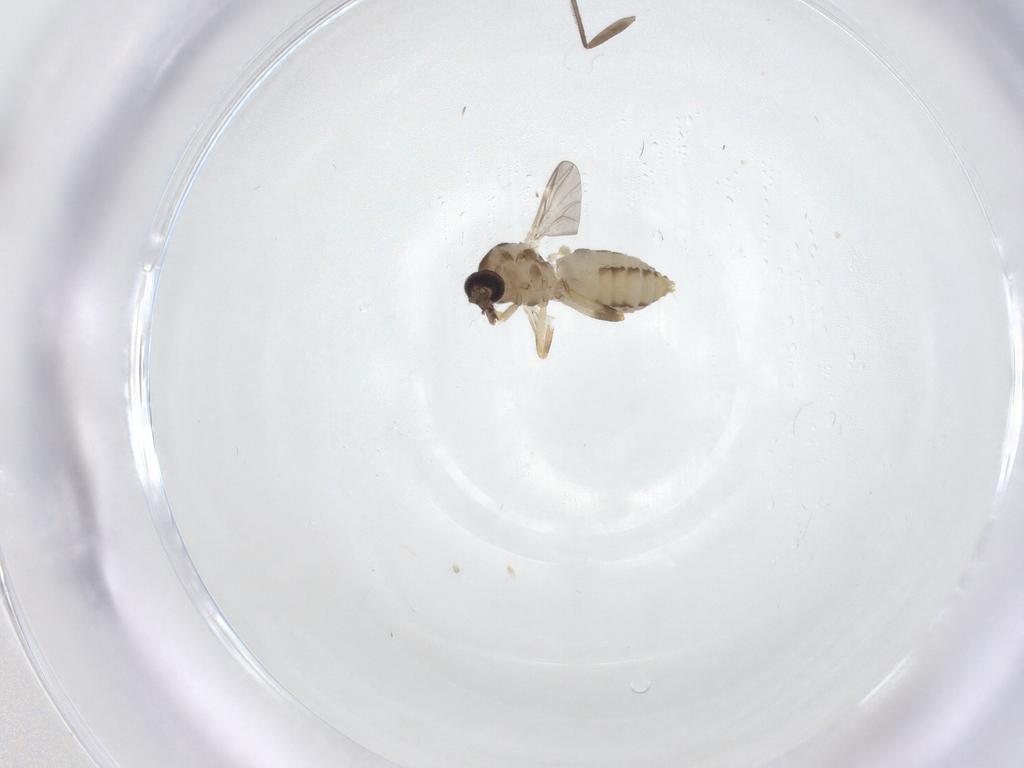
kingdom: Animalia
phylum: Arthropoda
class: Insecta
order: Diptera
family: Ceratopogonidae
